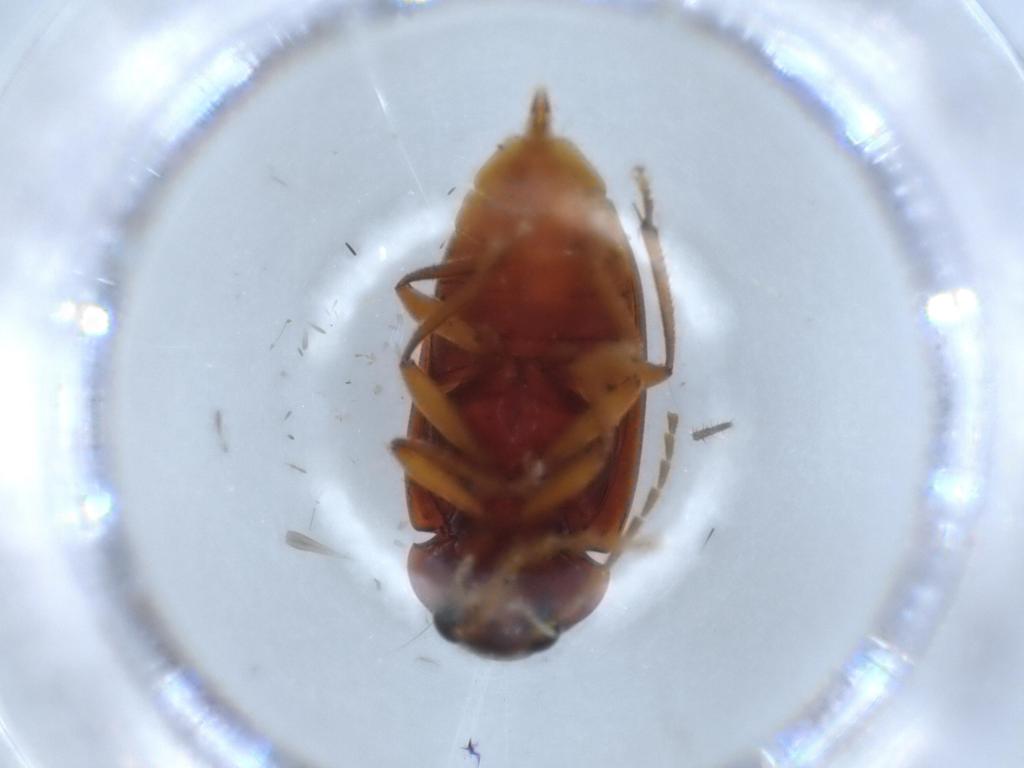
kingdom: Animalia
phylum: Arthropoda
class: Insecta
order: Coleoptera
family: Ptilodactylidae
